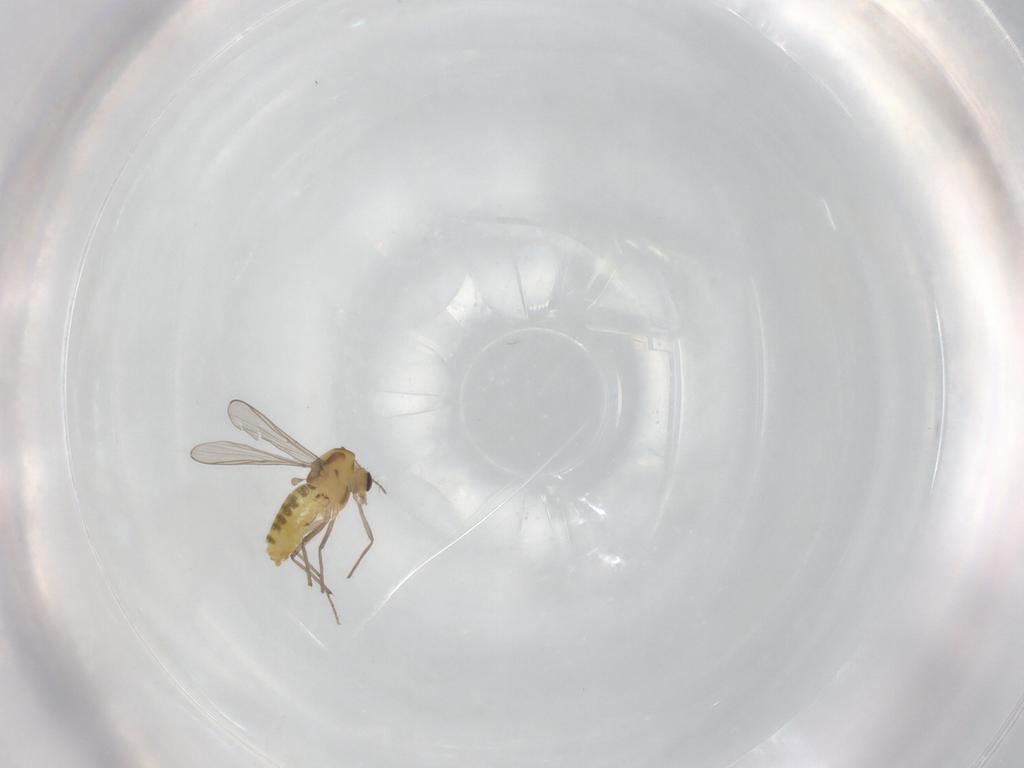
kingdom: Animalia
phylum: Arthropoda
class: Insecta
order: Diptera
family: Chironomidae
